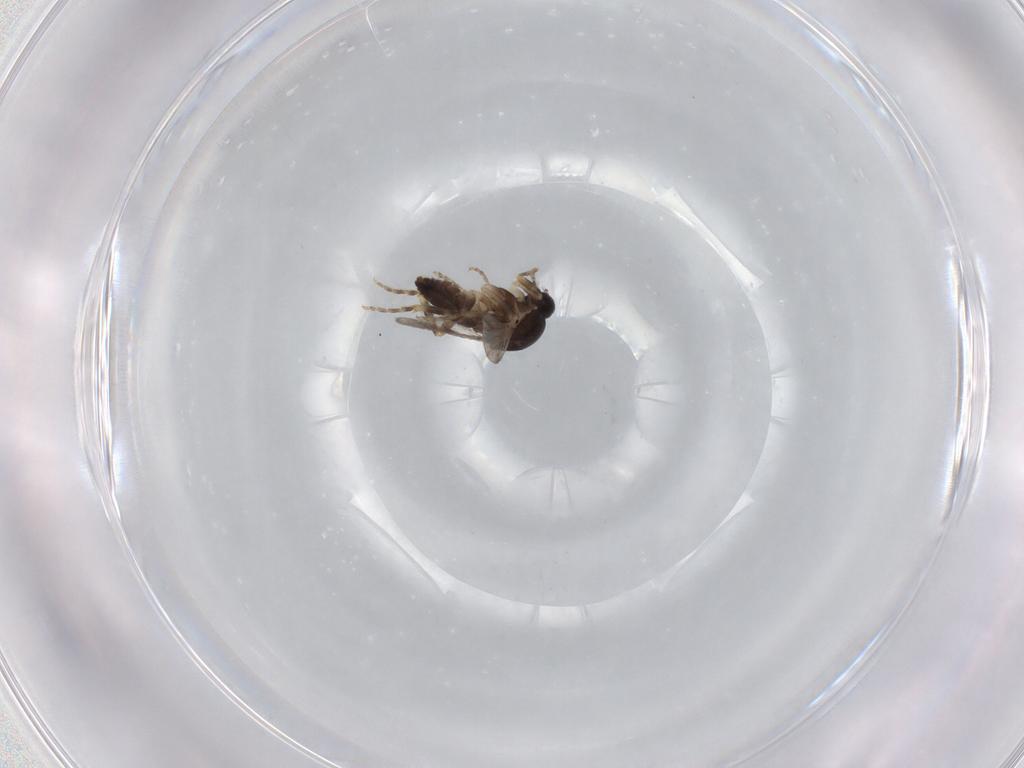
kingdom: Animalia
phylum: Arthropoda
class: Insecta
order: Diptera
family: Ceratopogonidae
